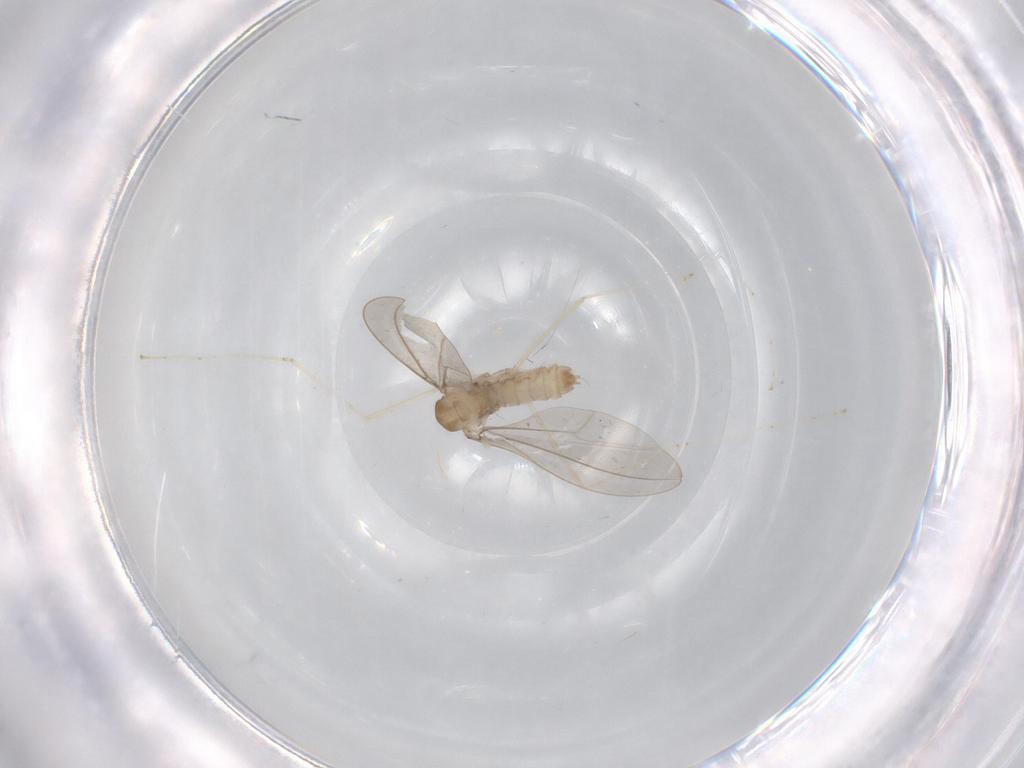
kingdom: Animalia
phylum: Arthropoda
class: Insecta
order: Diptera
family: Cecidomyiidae
